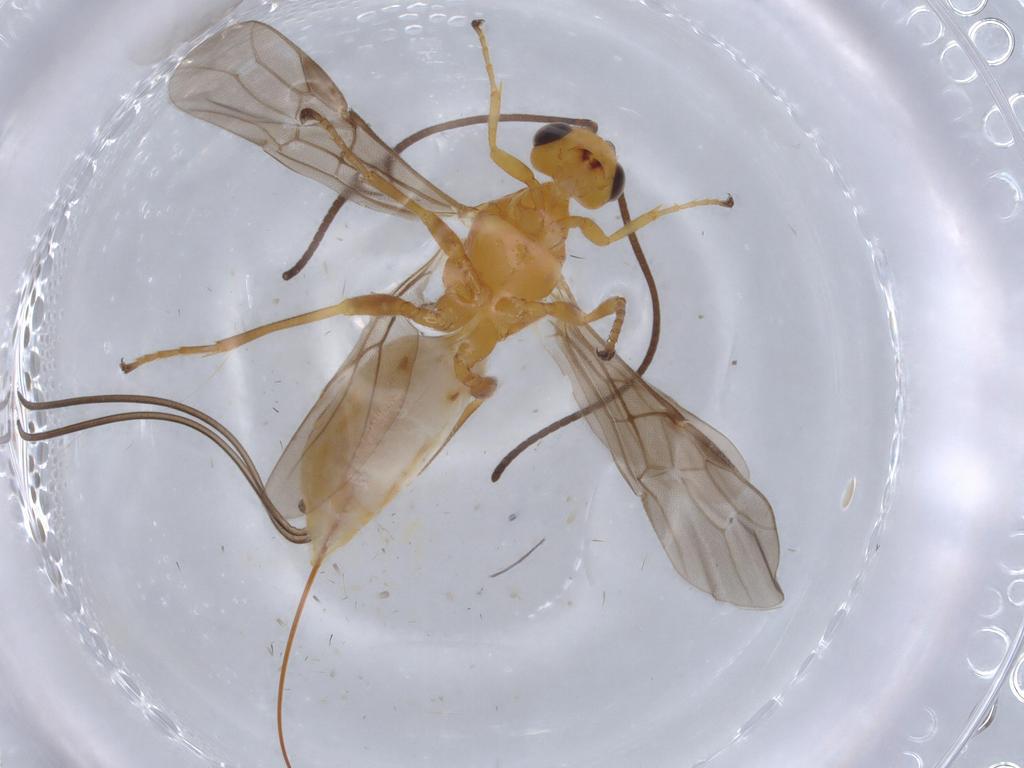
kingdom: Animalia
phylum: Arthropoda
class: Insecta
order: Hymenoptera
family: Braconidae
